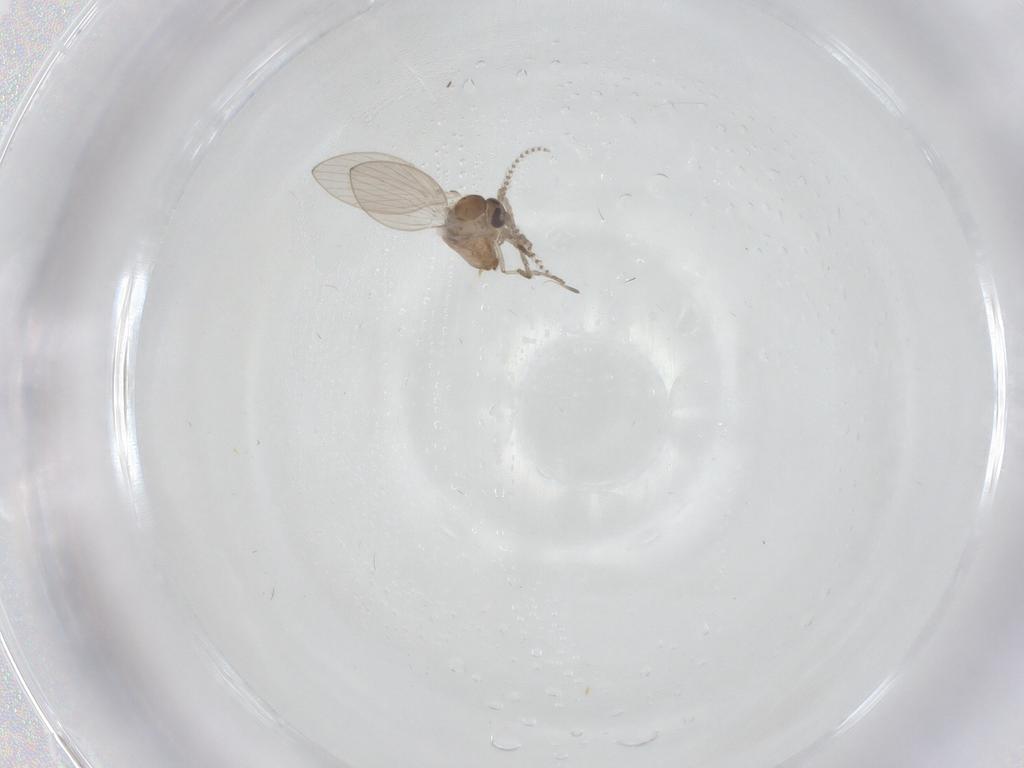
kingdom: Animalia
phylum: Arthropoda
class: Insecta
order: Diptera
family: Psychodidae
